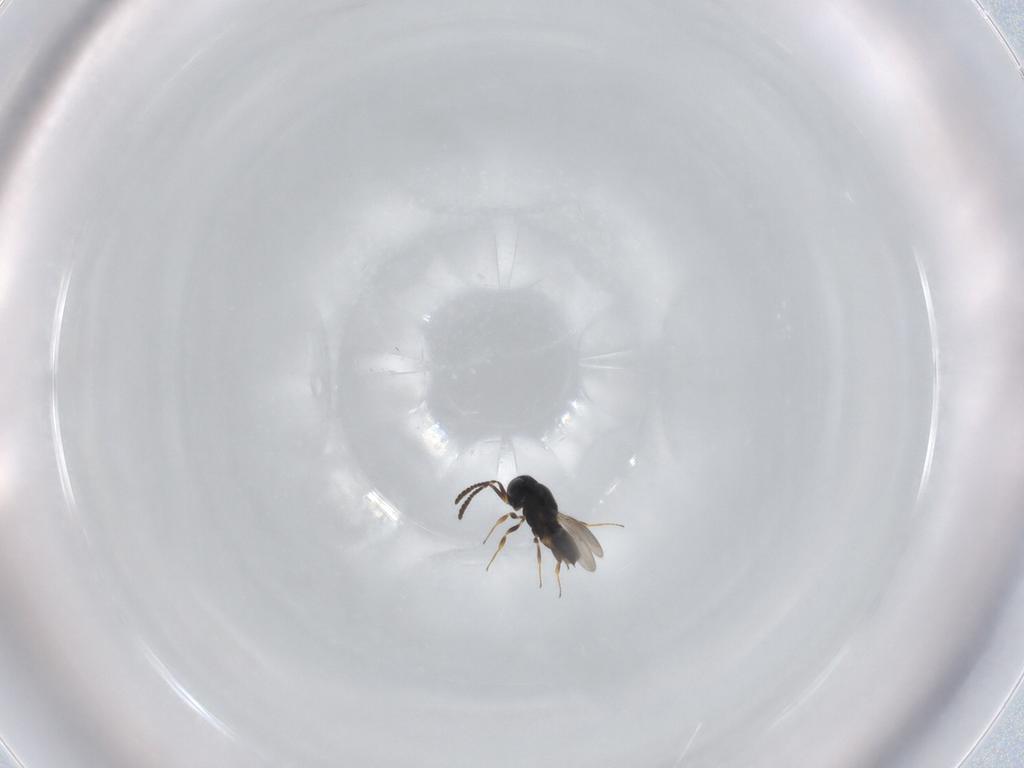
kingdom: Animalia
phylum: Arthropoda
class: Insecta
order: Hymenoptera
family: Scelionidae
